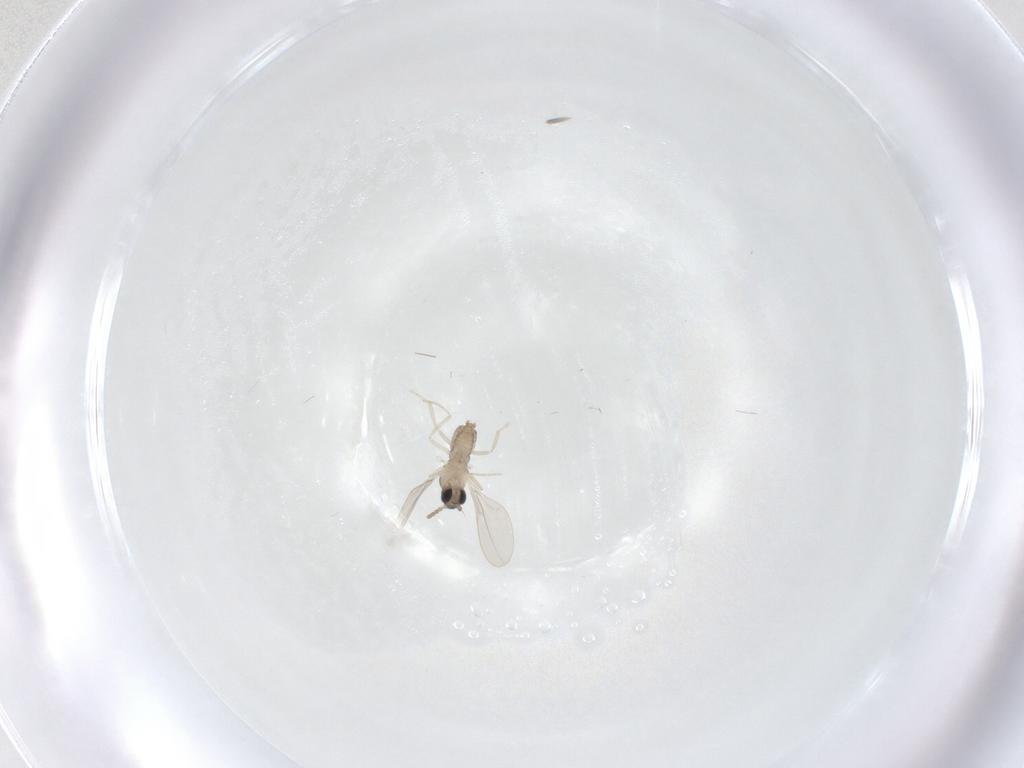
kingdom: Animalia
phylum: Arthropoda
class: Insecta
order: Diptera
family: Cecidomyiidae
